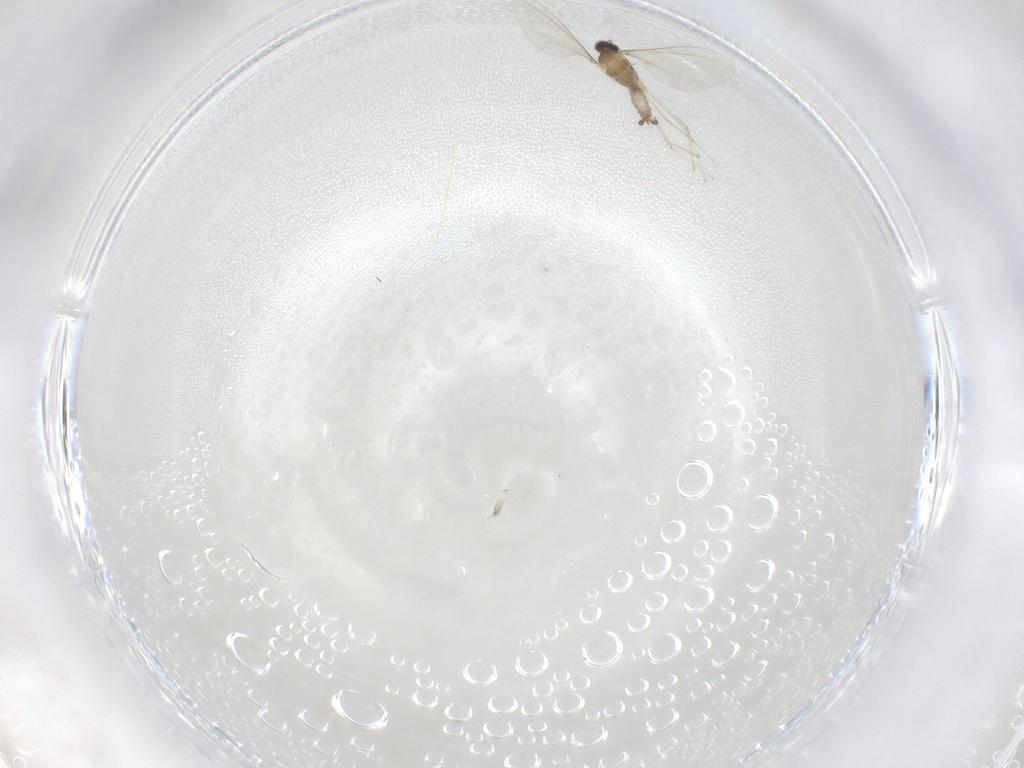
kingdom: Animalia
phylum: Arthropoda
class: Insecta
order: Diptera
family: Cecidomyiidae
